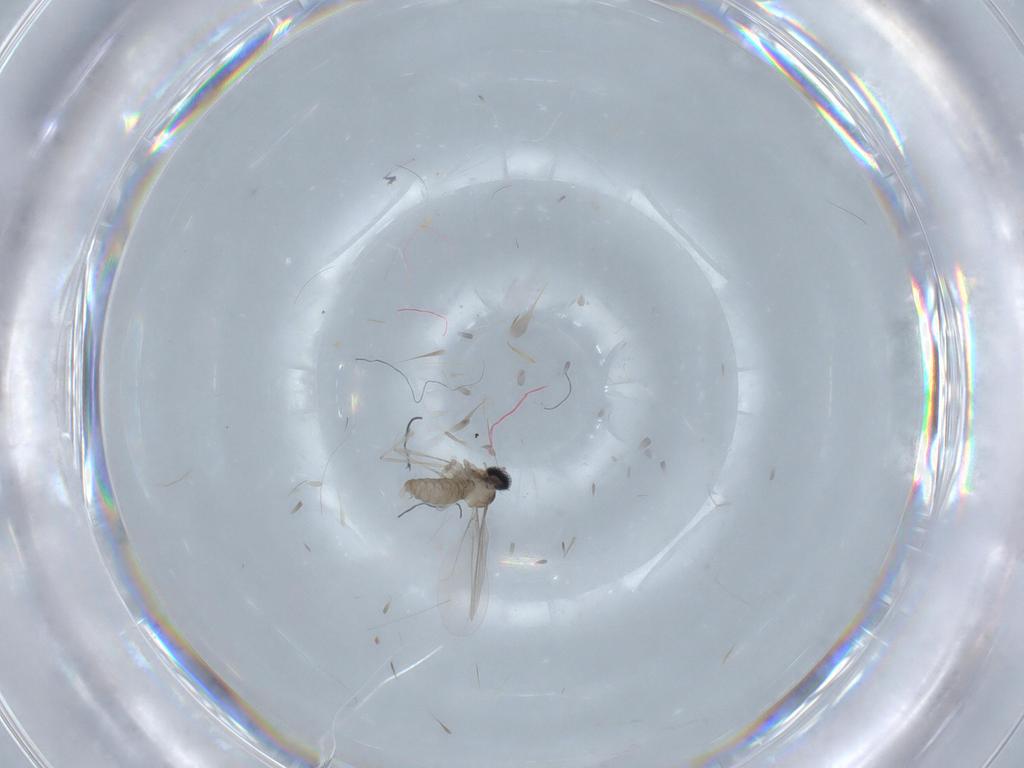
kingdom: Animalia
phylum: Arthropoda
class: Insecta
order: Diptera
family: Cecidomyiidae
